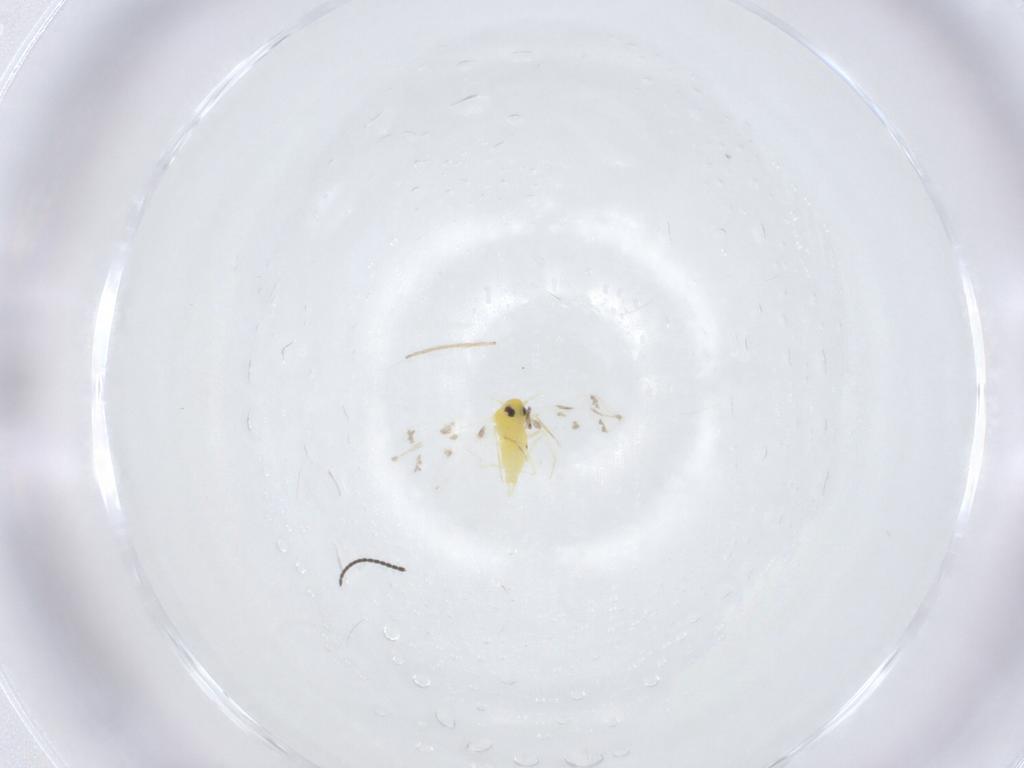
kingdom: Animalia
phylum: Arthropoda
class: Insecta
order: Hemiptera
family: Aleyrodidae
